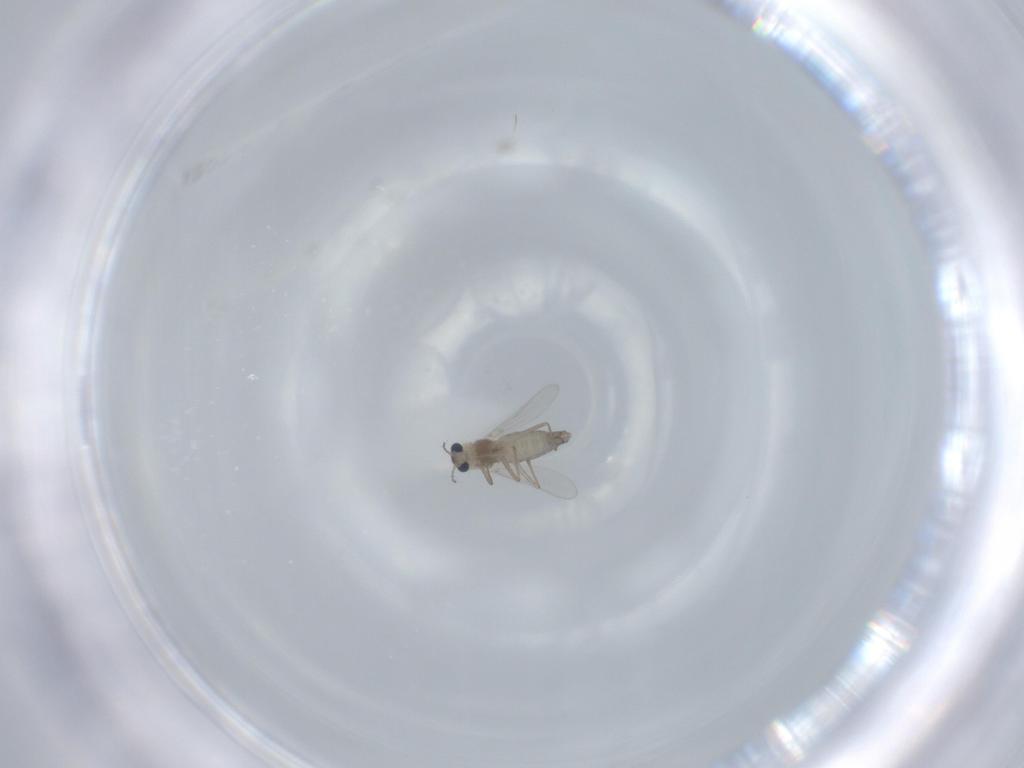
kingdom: Animalia
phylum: Arthropoda
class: Insecta
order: Diptera
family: Chironomidae
